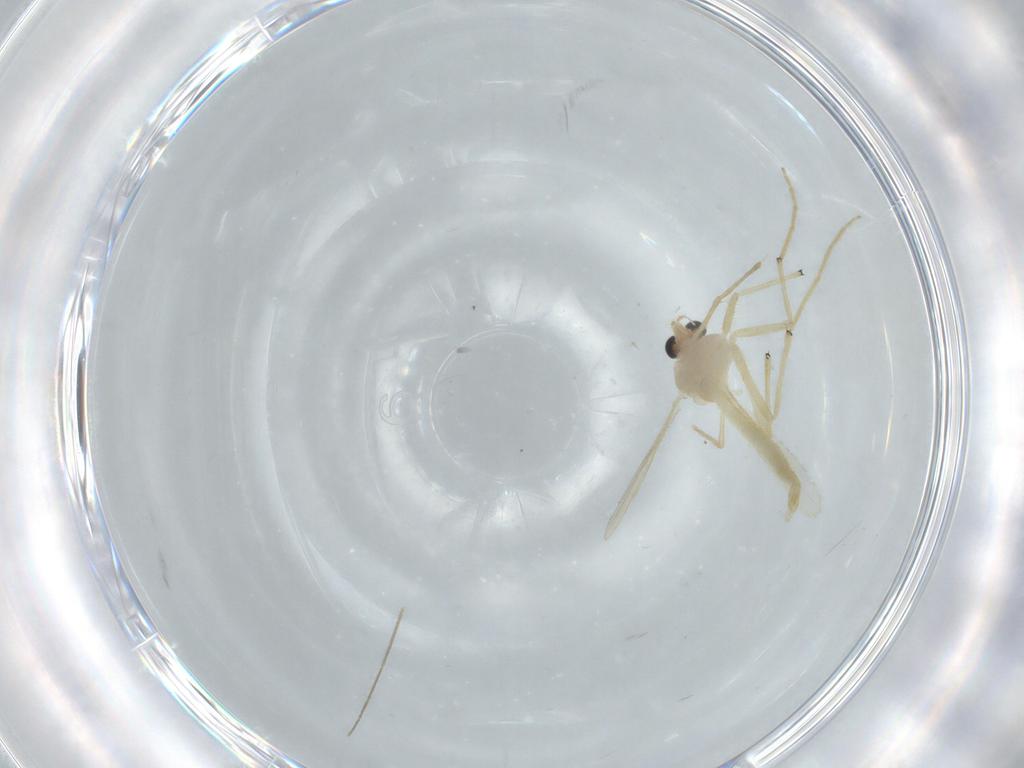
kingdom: Animalia
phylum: Arthropoda
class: Insecta
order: Diptera
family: Chironomidae
